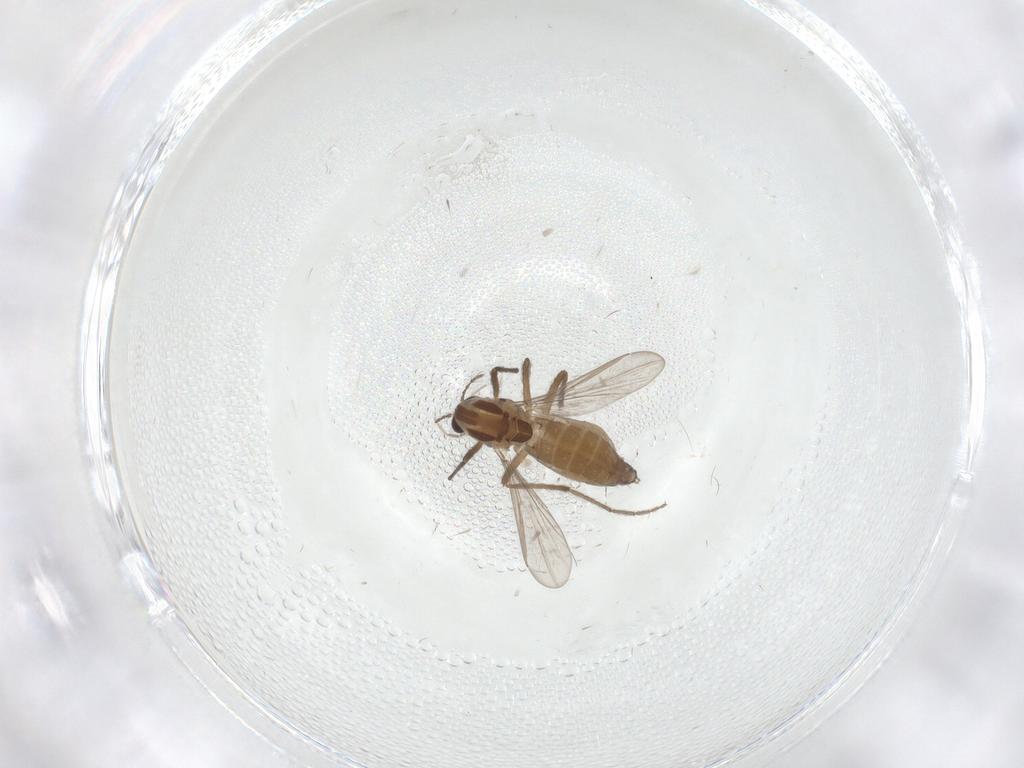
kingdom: Animalia
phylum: Arthropoda
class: Insecta
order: Diptera
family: Chironomidae
